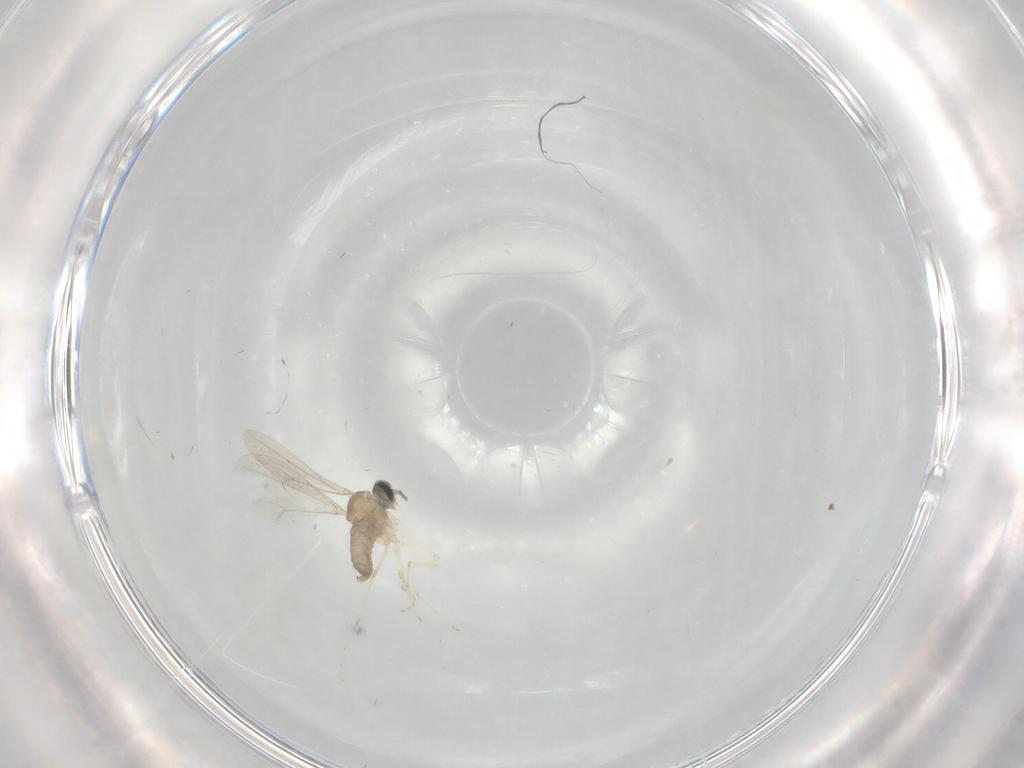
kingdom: Animalia
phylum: Arthropoda
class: Insecta
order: Diptera
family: Cecidomyiidae
